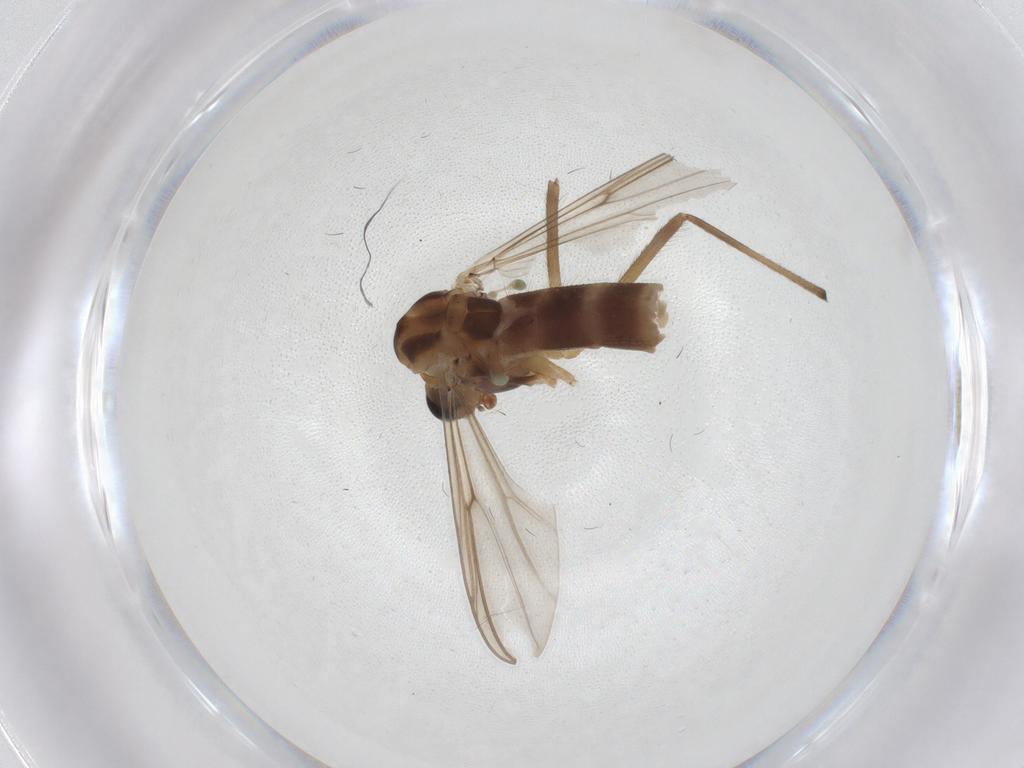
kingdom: Animalia
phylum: Arthropoda
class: Insecta
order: Diptera
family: Chironomidae
